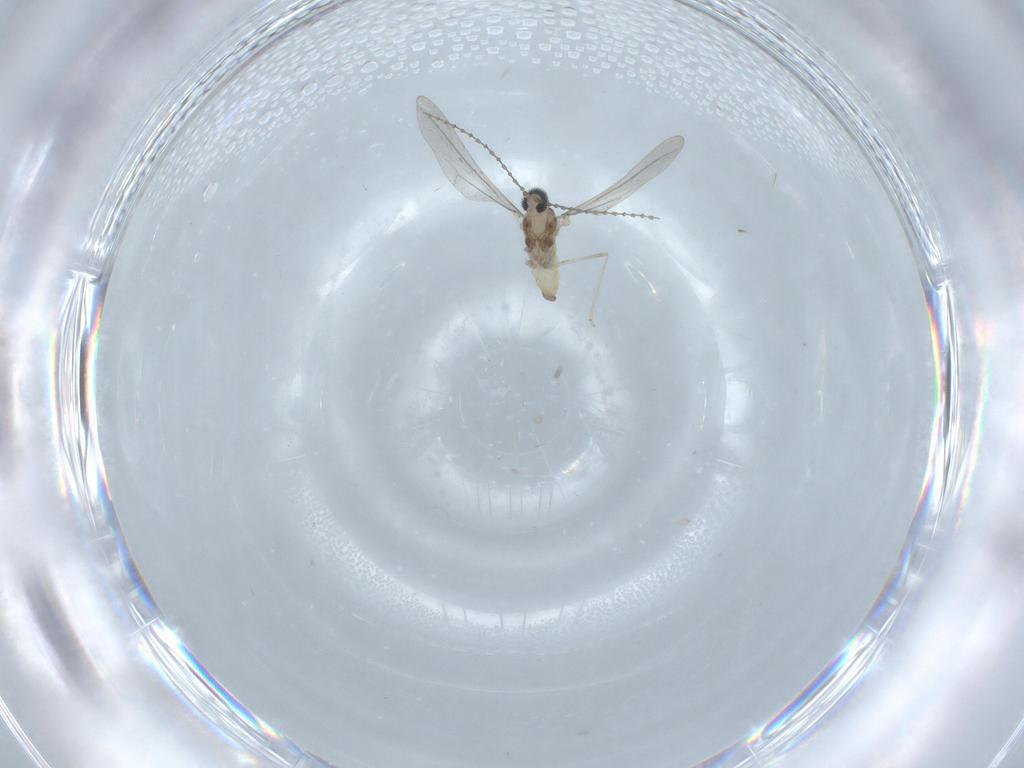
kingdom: Animalia
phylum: Arthropoda
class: Insecta
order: Diptera
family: Cecidomyiidae
